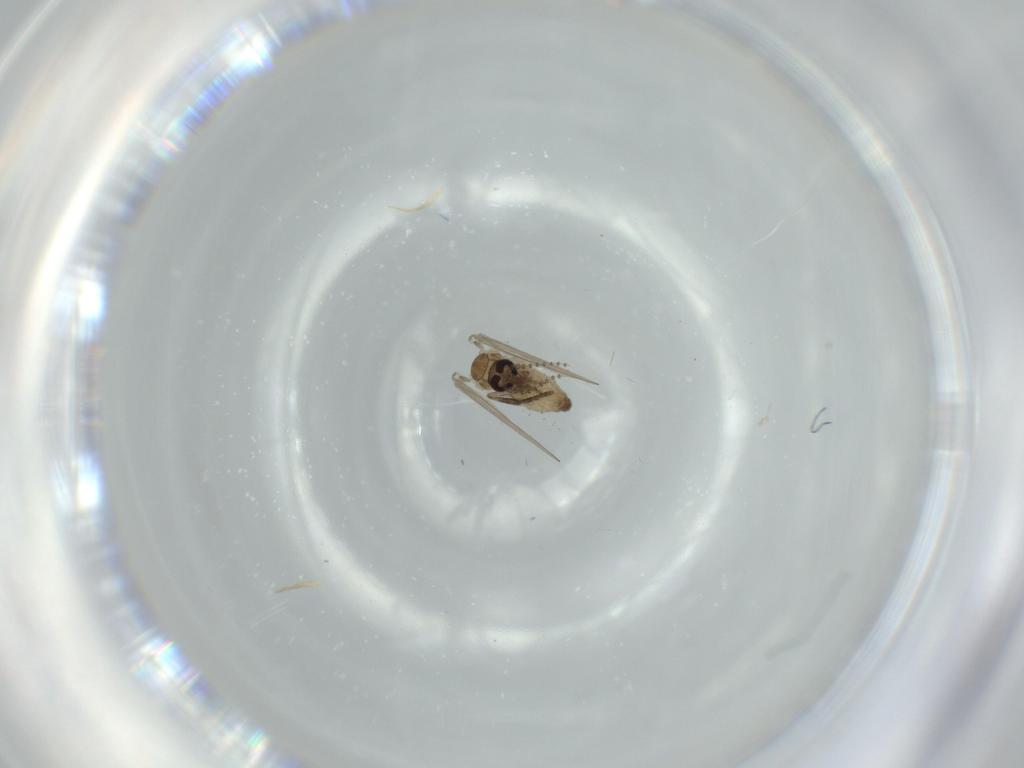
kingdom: Animalia
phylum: Arthropoda
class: Insecta
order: Diptera
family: Psychodidae
